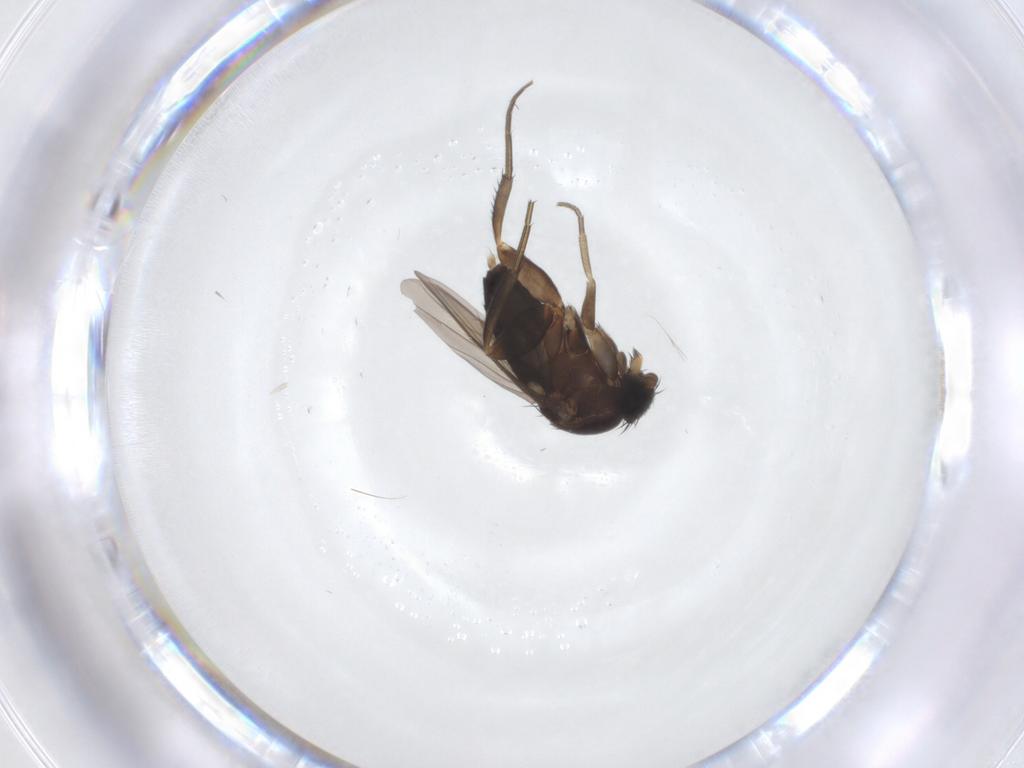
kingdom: Animalia
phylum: Arthropoda
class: Insecta
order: Diptera
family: Phoridae
